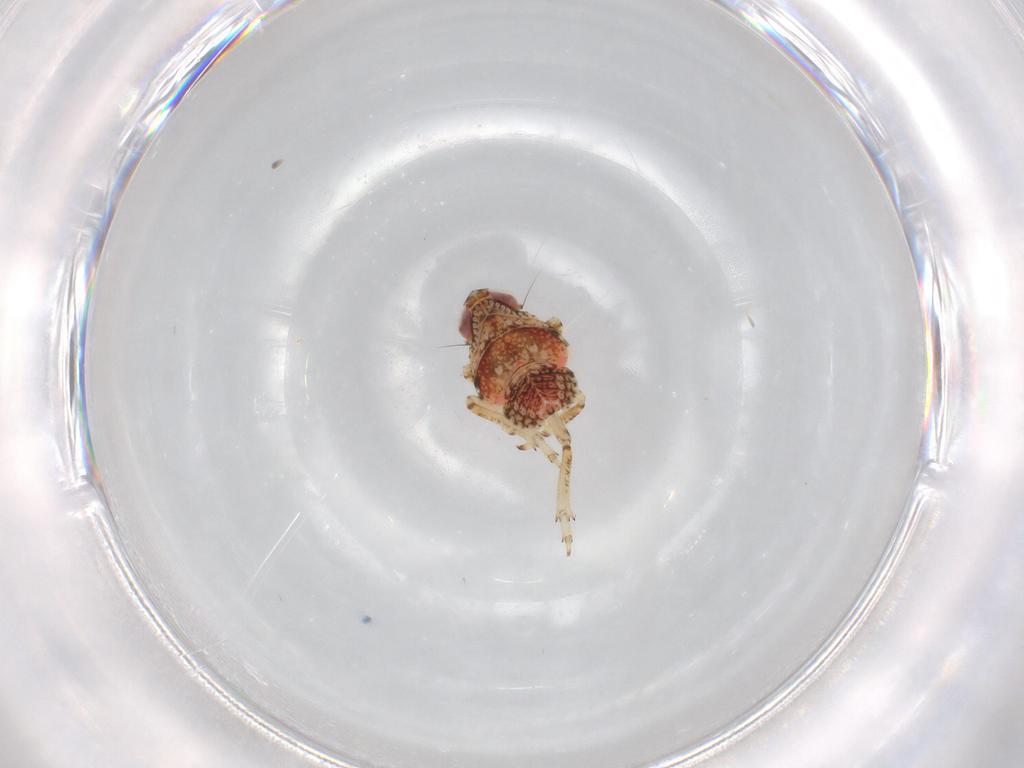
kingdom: Animalia
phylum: Arthropoda
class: Insecta
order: Hemiptera
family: Issidae
